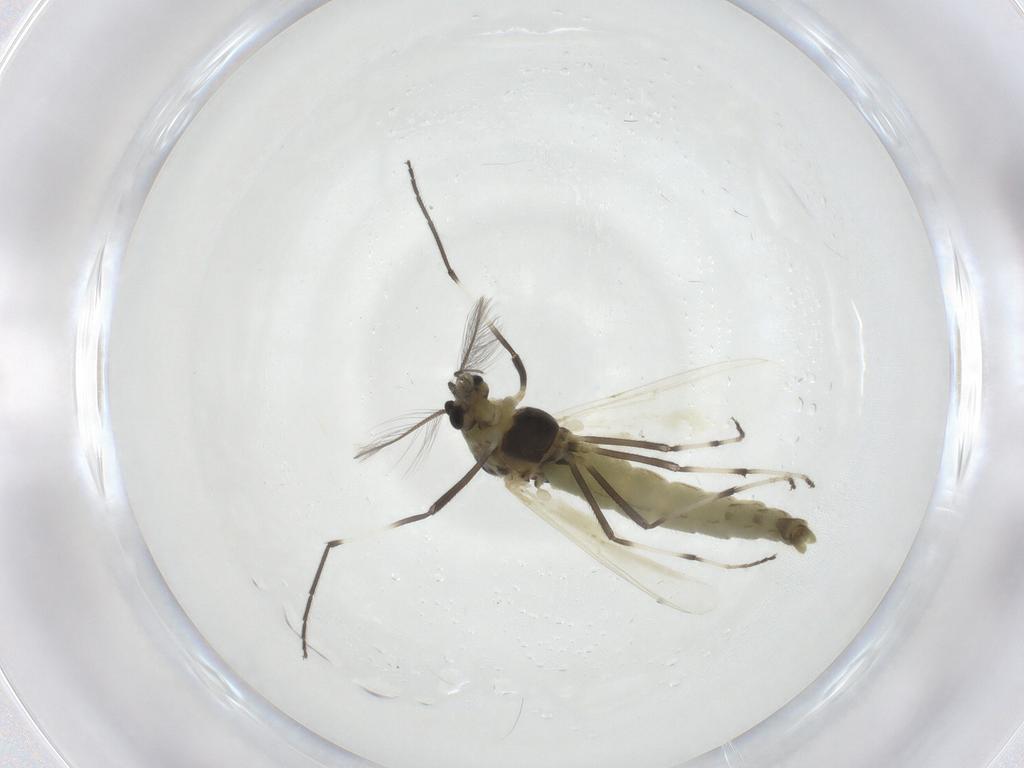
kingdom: Animalia
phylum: Arthropoda
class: Insecta
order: Diptera
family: Chironomidae
